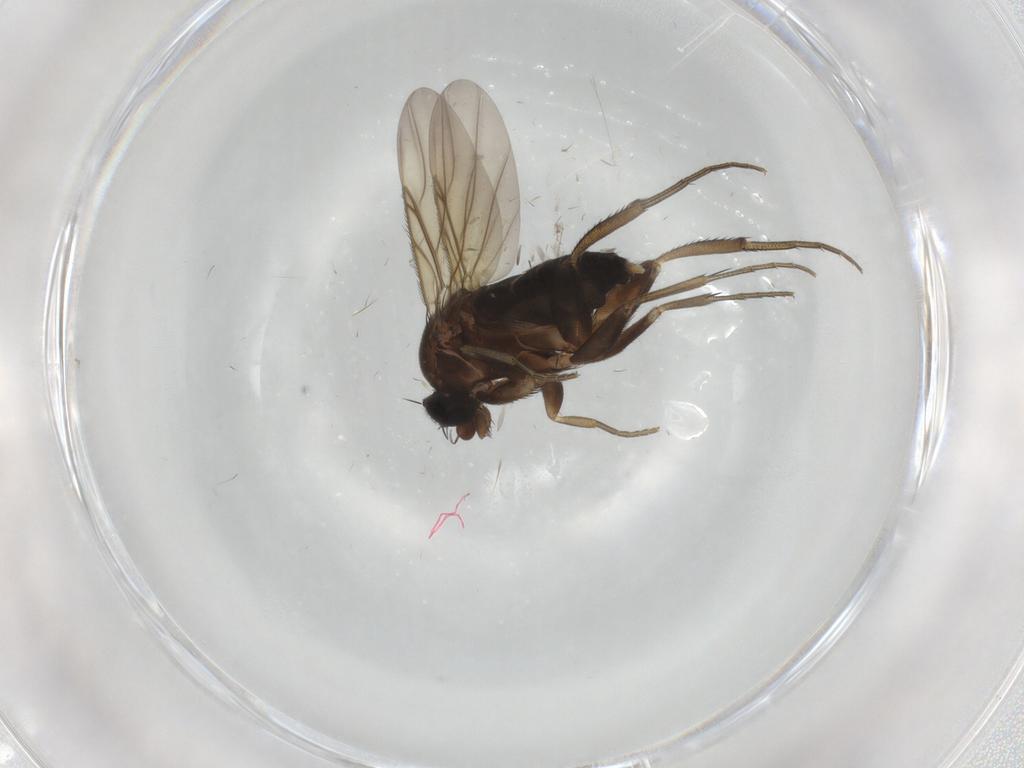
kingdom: Animalia
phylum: Arthropoda
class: Insecta
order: Diptera
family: Phoridae
